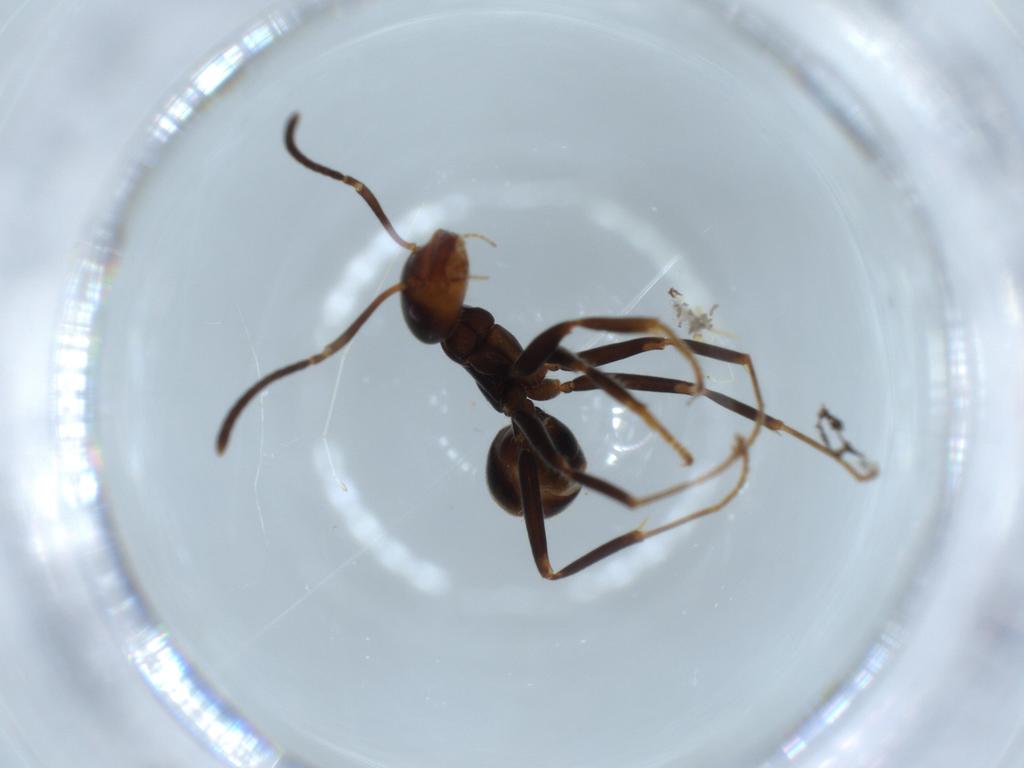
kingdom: Animalia
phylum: Arthropoda
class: Insecta
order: Hymenoptera
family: Formicidae
